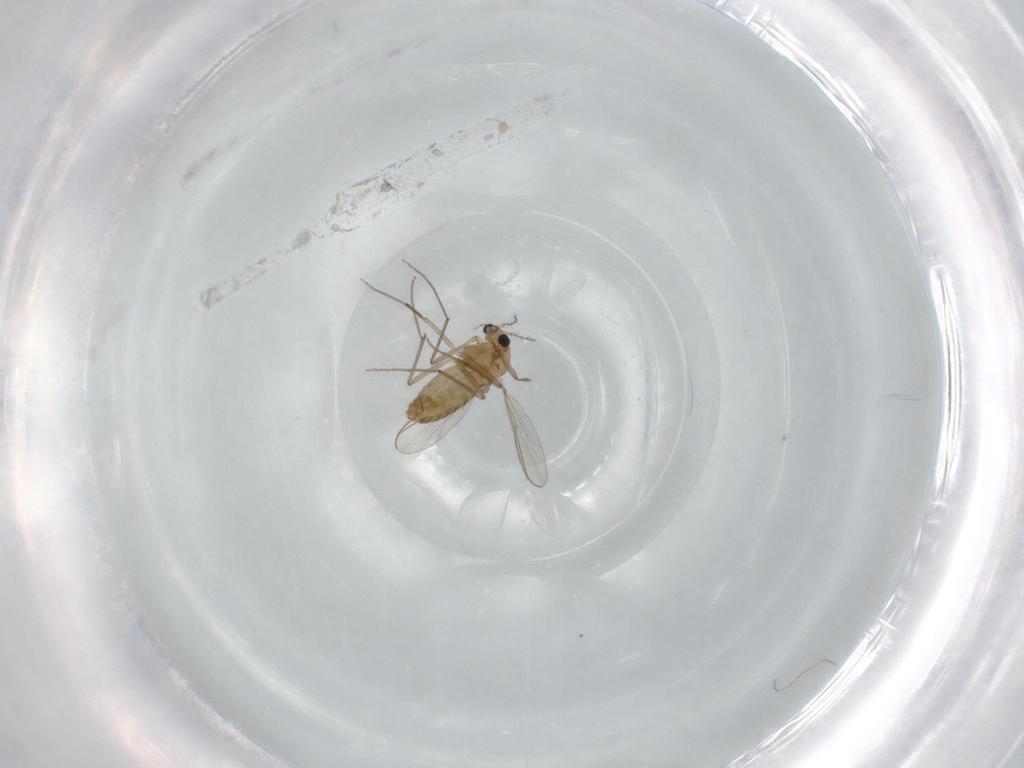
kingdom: Animalia
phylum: Arthropoda
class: Insecta
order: Diptera
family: Chironomidae
